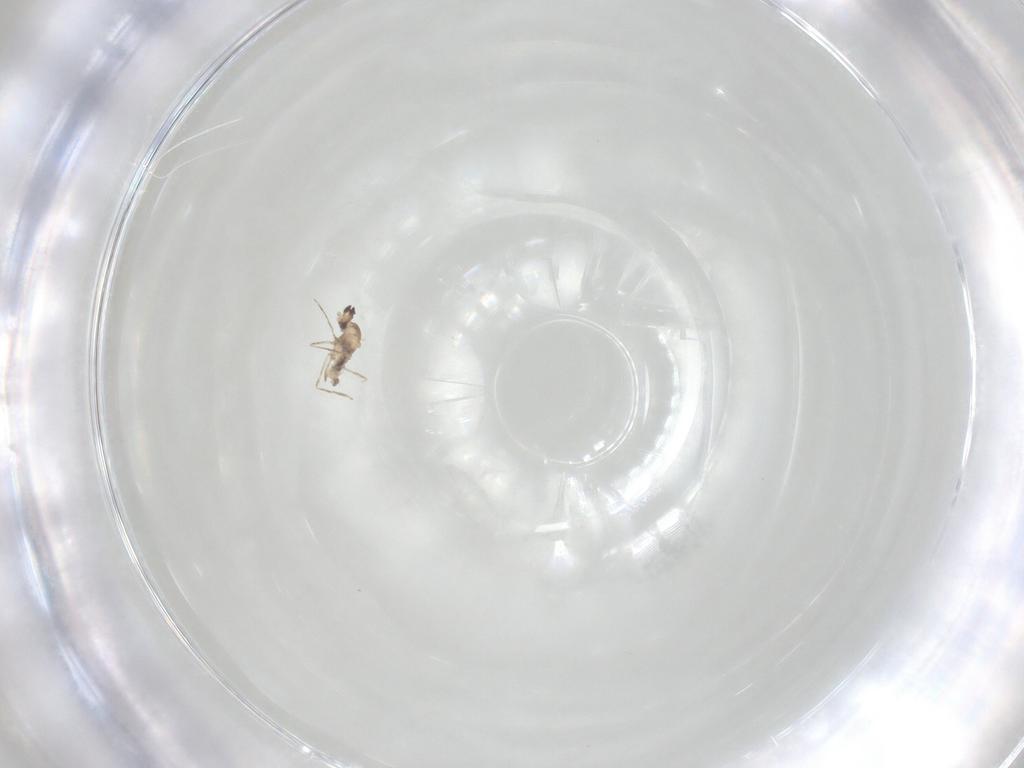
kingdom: Animalia
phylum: Arthropoda
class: Insecta
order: Diptera
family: Cecidomyiidae
